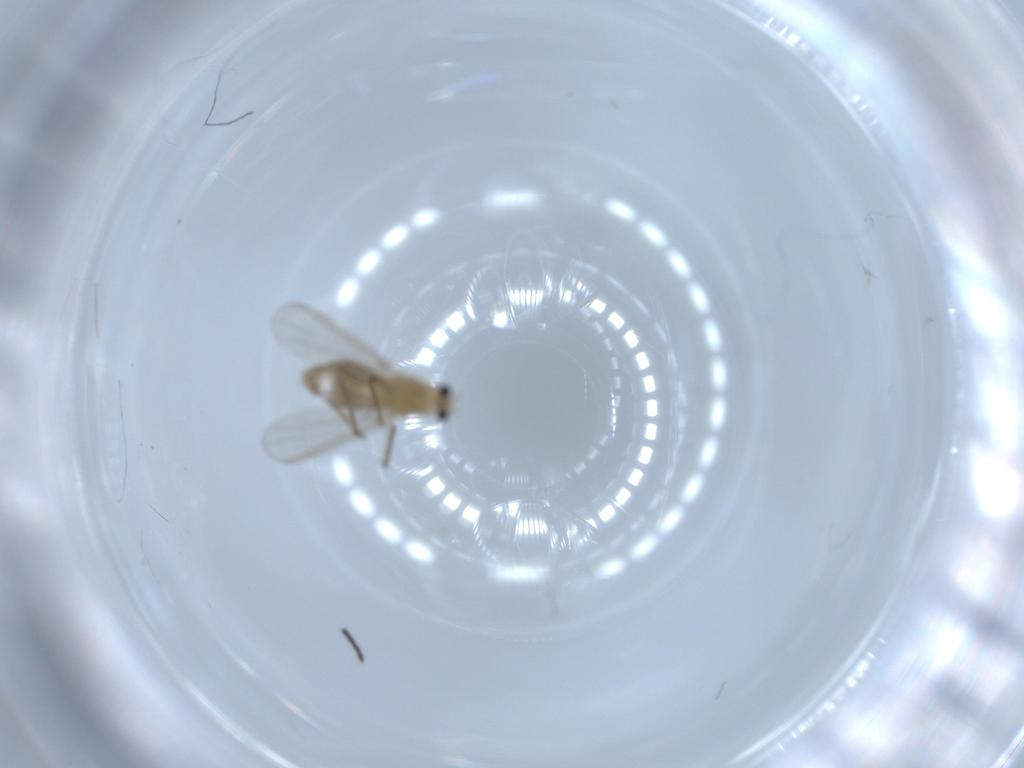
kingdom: Animalia
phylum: Arthropoda
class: Insecta
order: Diptera
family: Chironomidae
